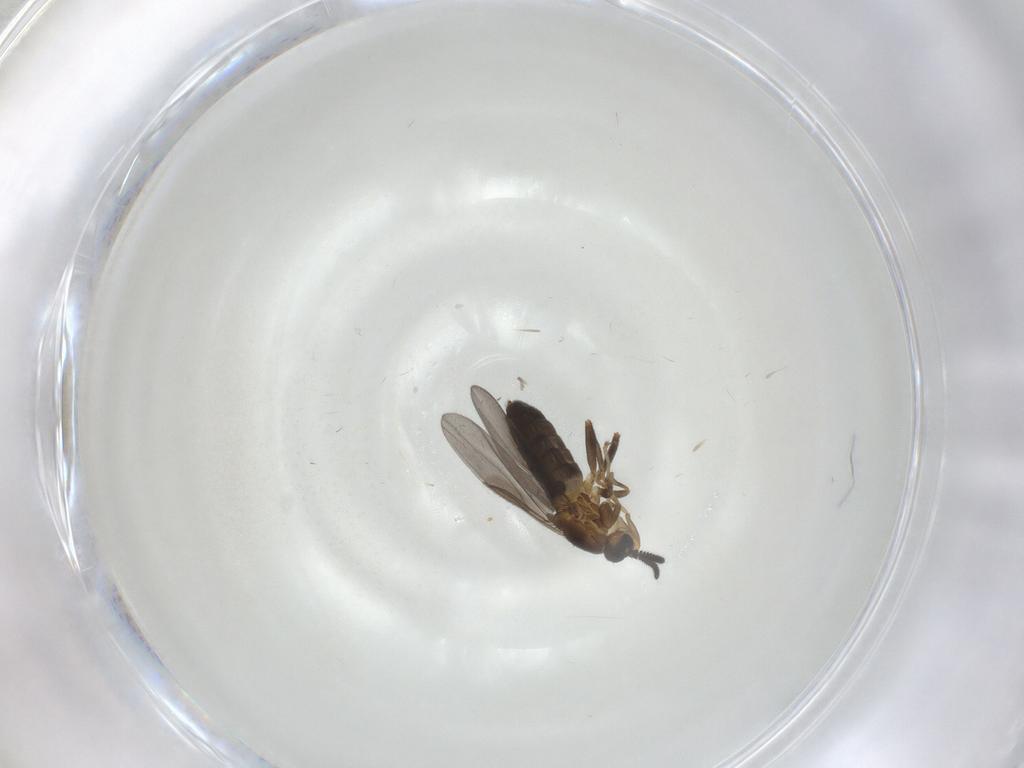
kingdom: Animalia
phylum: Arthropoda
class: Insecta
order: Diptera
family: Scatopsidae
